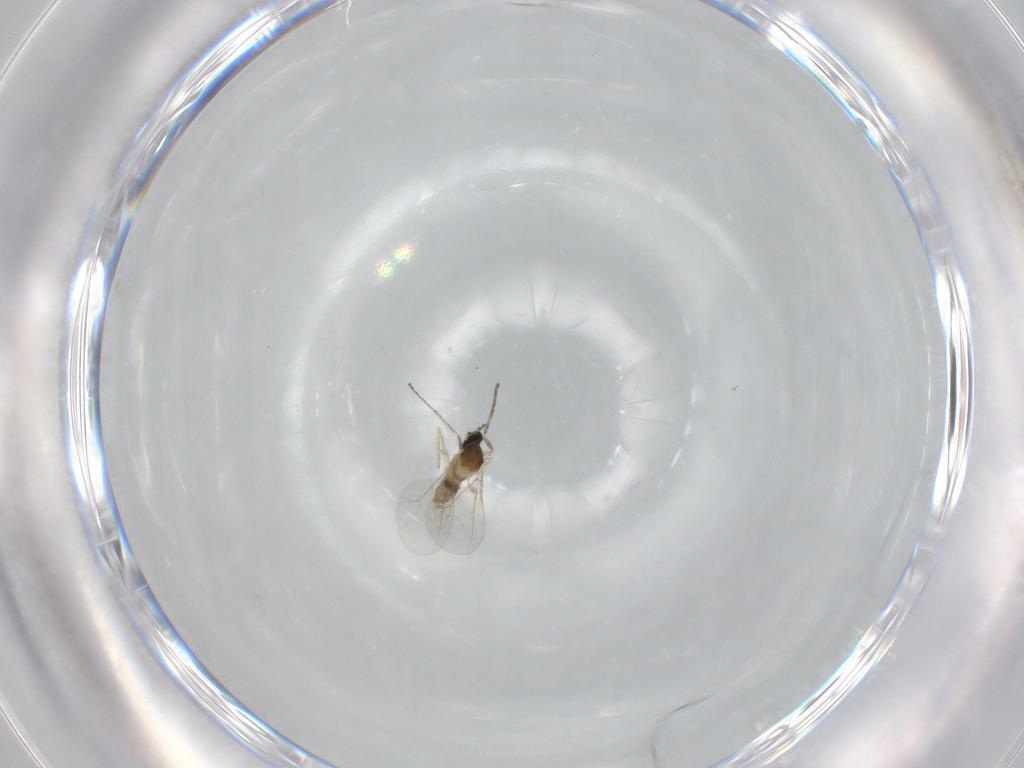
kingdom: Animalia
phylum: Arthropoda
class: Insecta
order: Diptera
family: Cecidomyiidae
